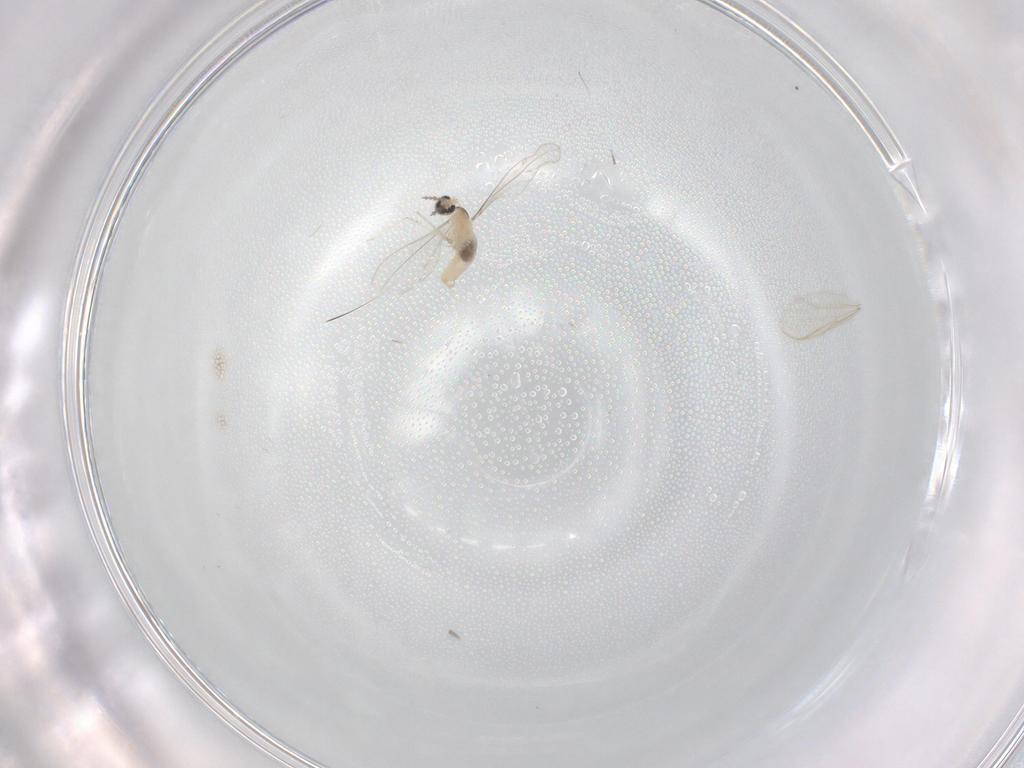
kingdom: Animalia
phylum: Arthropoda
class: Insecta
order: Diptera
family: Cecidomyiidae
